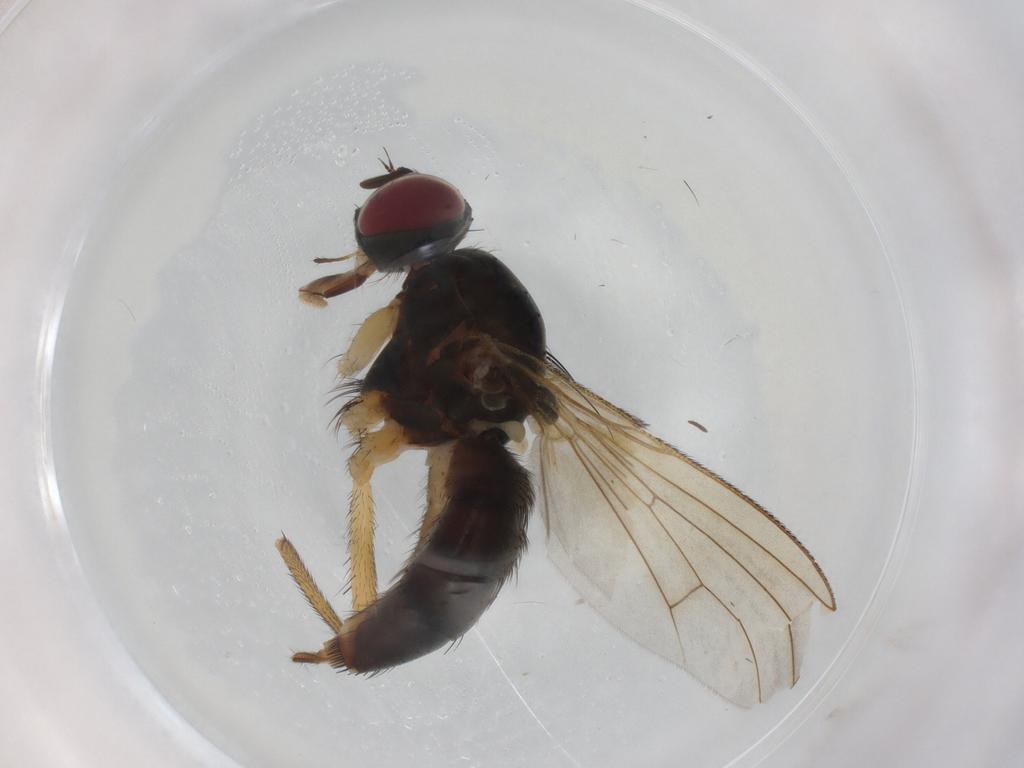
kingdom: Animalia
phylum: Arthropoda
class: Insecta
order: Diptera
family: Muscidae
